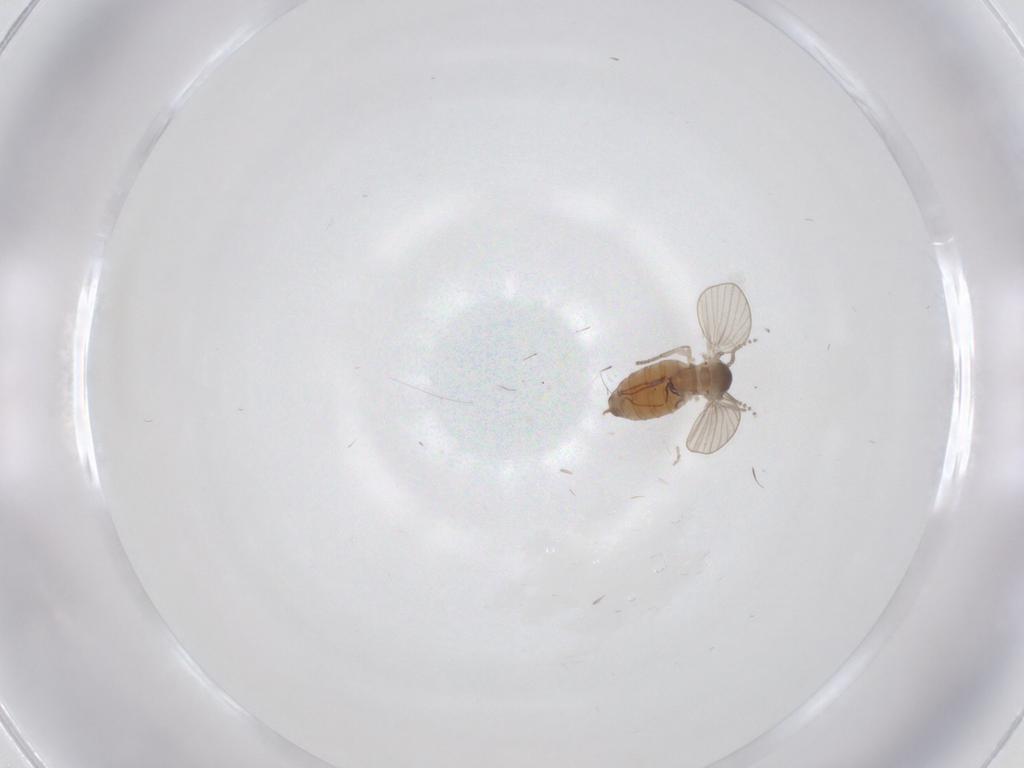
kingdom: Animalia
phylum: Arthropoda
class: Insecta
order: Diptera
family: Psychodidae
